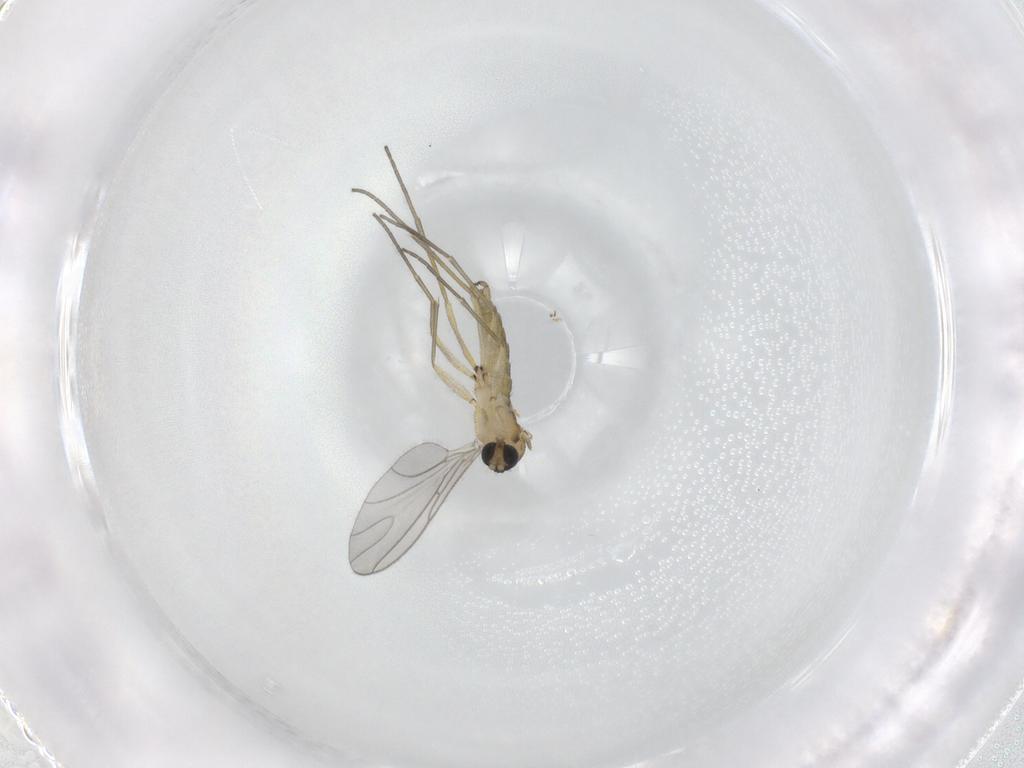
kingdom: Animalia
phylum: Arthropoda
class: Insecta
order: Diptera
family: Sciaridae
